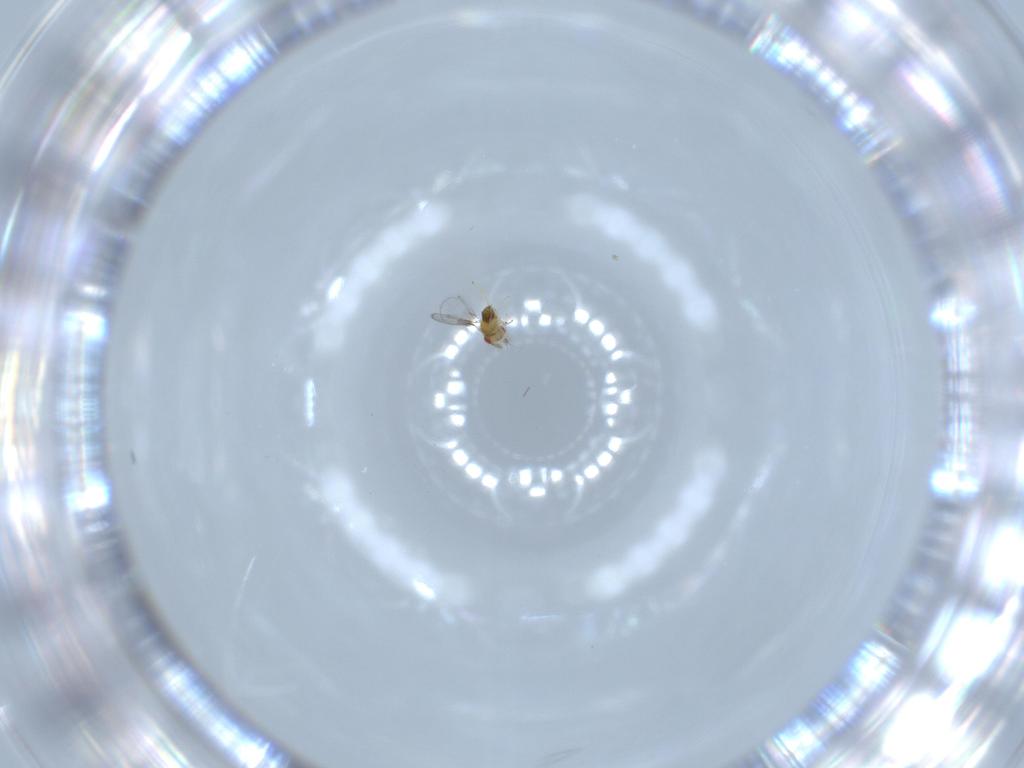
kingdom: Animalia
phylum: Arthropoda
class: Insecta
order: Hymenoptera
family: Trichogrammatidae
